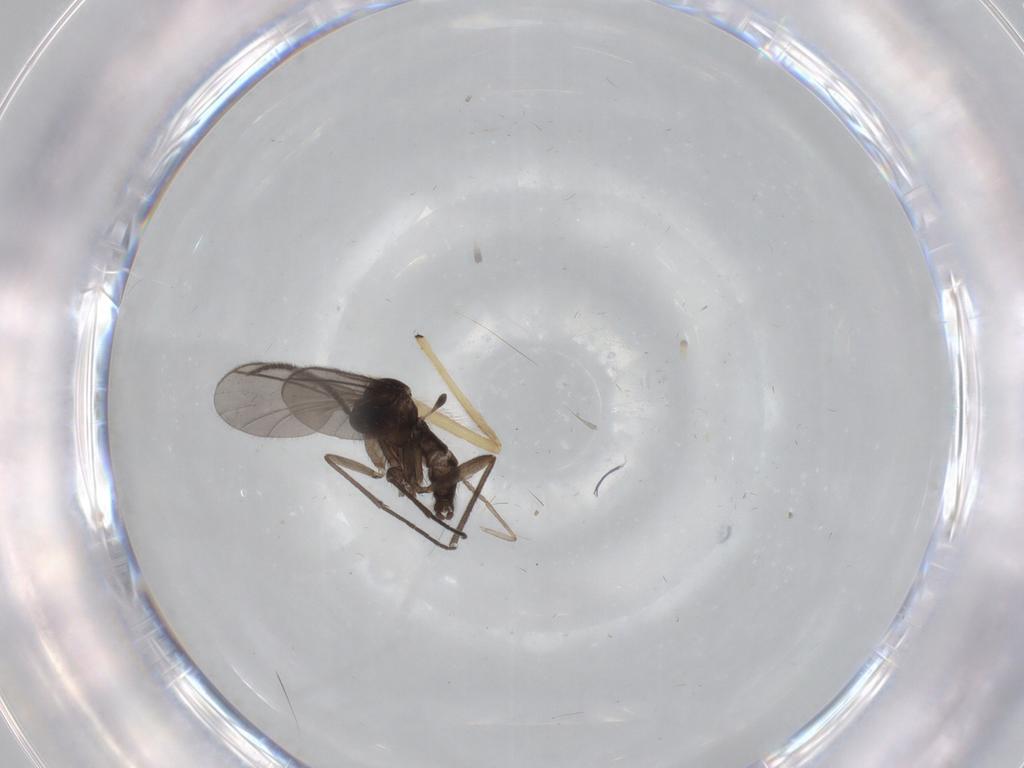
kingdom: Animalia
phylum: Arthropoda
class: Insecta
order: Diptera
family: Sciaridae
